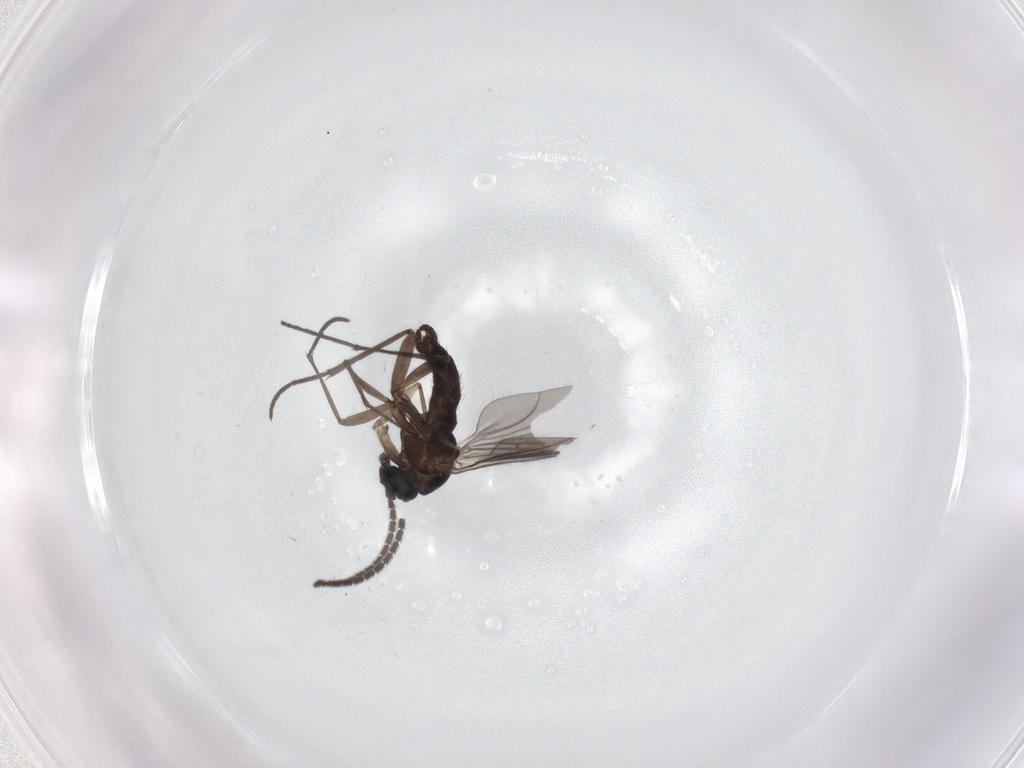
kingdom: Animalia
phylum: Arthropoda
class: Insecta
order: Diptera
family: Sciaridae
